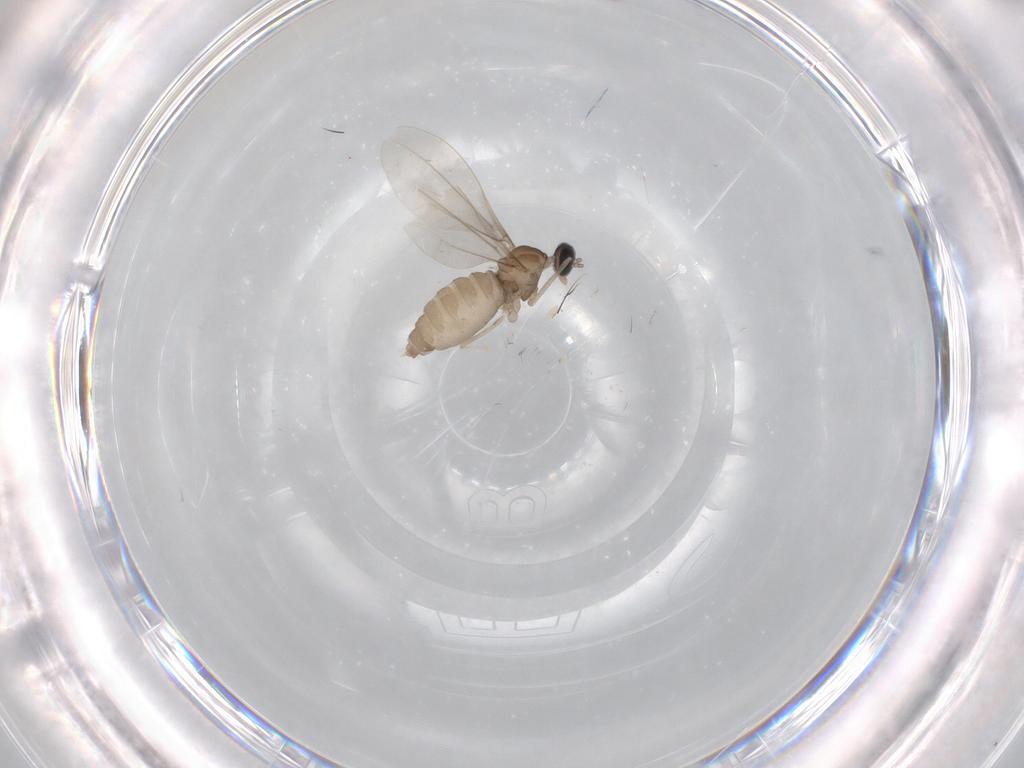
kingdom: Animalia
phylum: Arthropoda
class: Insecta
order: Diptera
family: Cecidomyiidae
